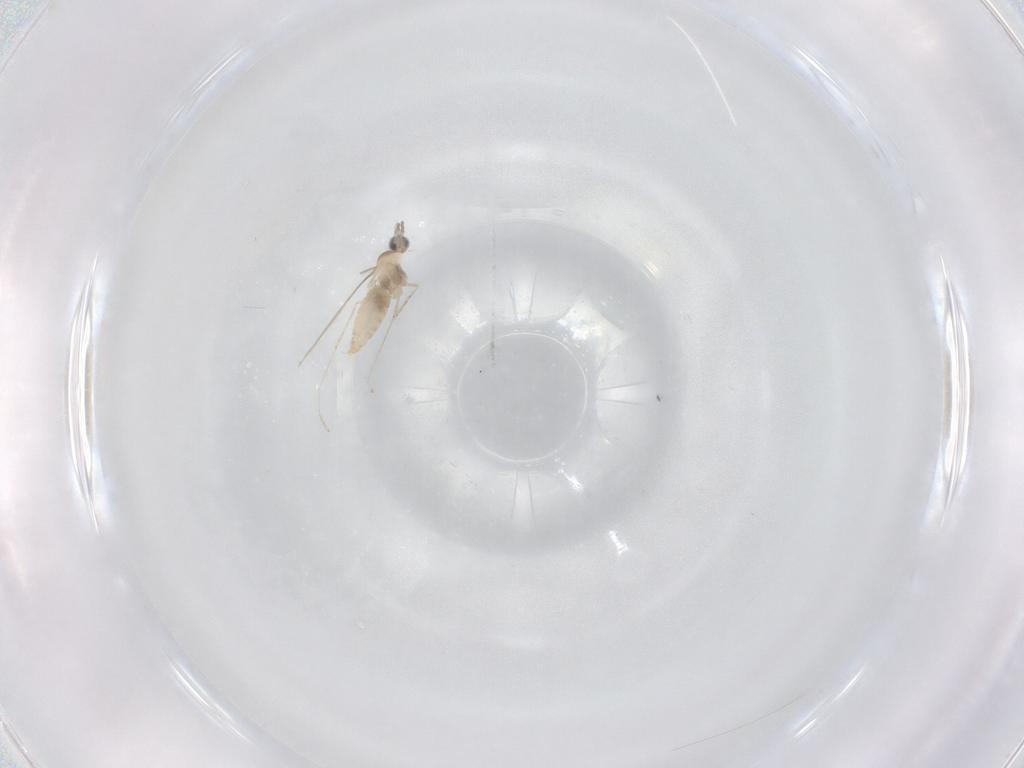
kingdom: Animalia
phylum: Arthropoda
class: Insecta
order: Diptera
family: Cecidomyiidae
